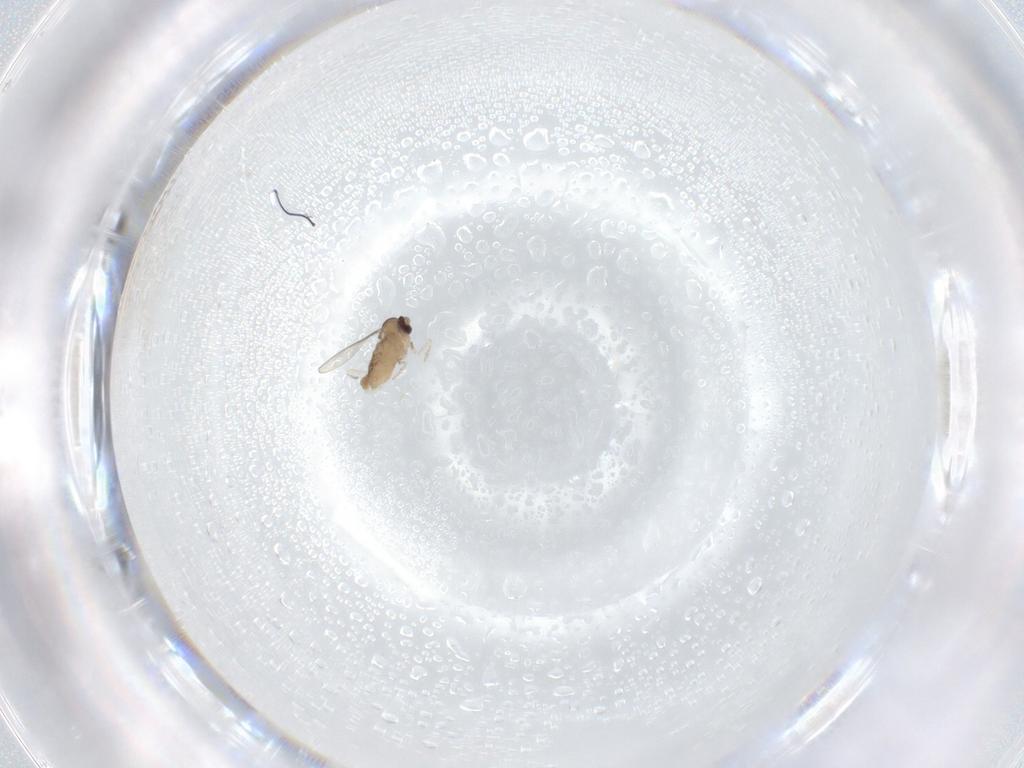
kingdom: Animalia
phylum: Arthropoda
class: Insecta
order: Diptera
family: Cecidomyiidae
